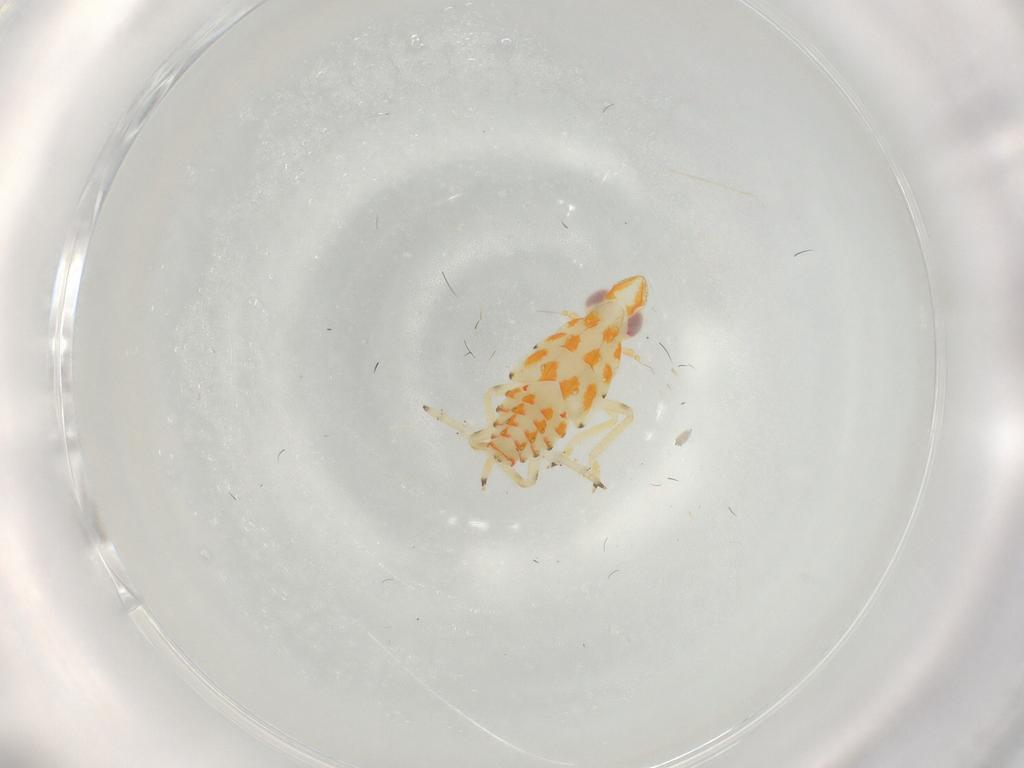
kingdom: Animalia
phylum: Arthropoda
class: Insecta
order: Hemiptera
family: Tropiduchidae
